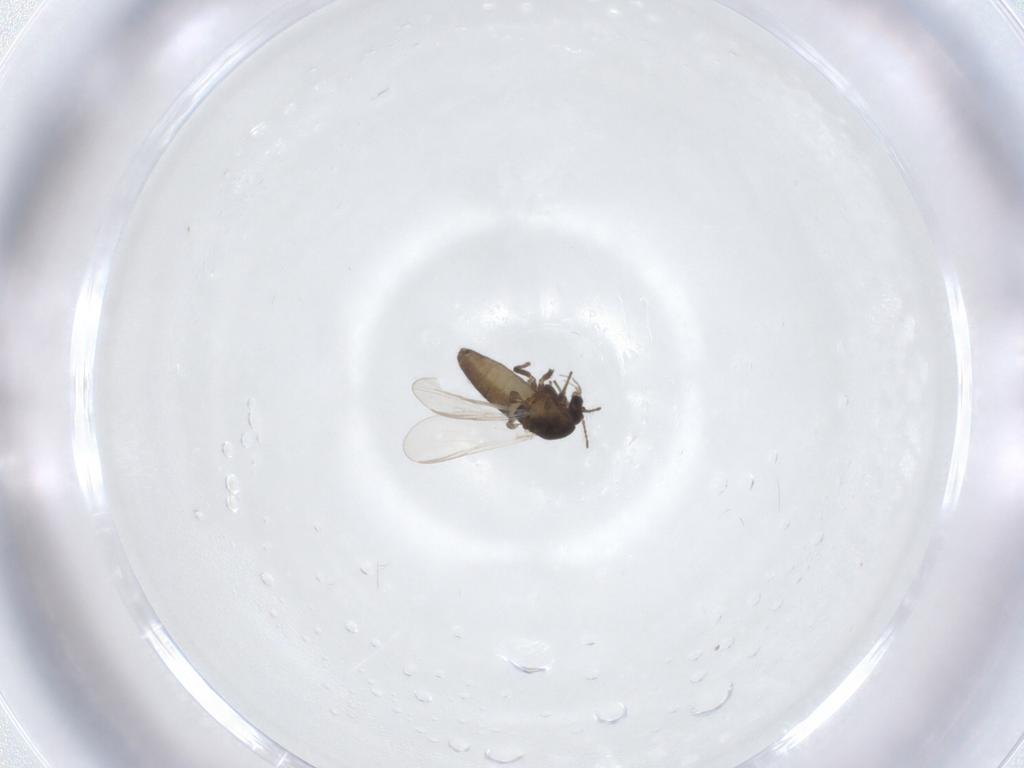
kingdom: Animalia
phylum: Arthropoda
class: Insecta
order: Diptera
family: Chironomidae
